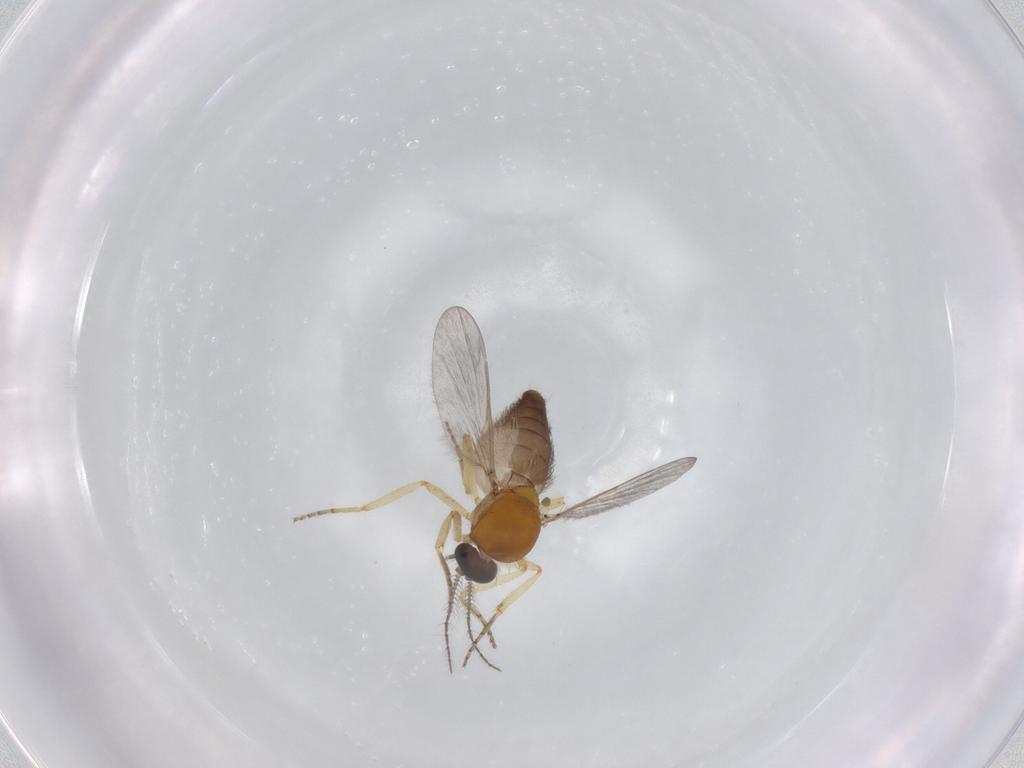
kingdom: Animalia
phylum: Arthropoda
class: Insecta
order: Diptera
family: Ceratopogonidae
